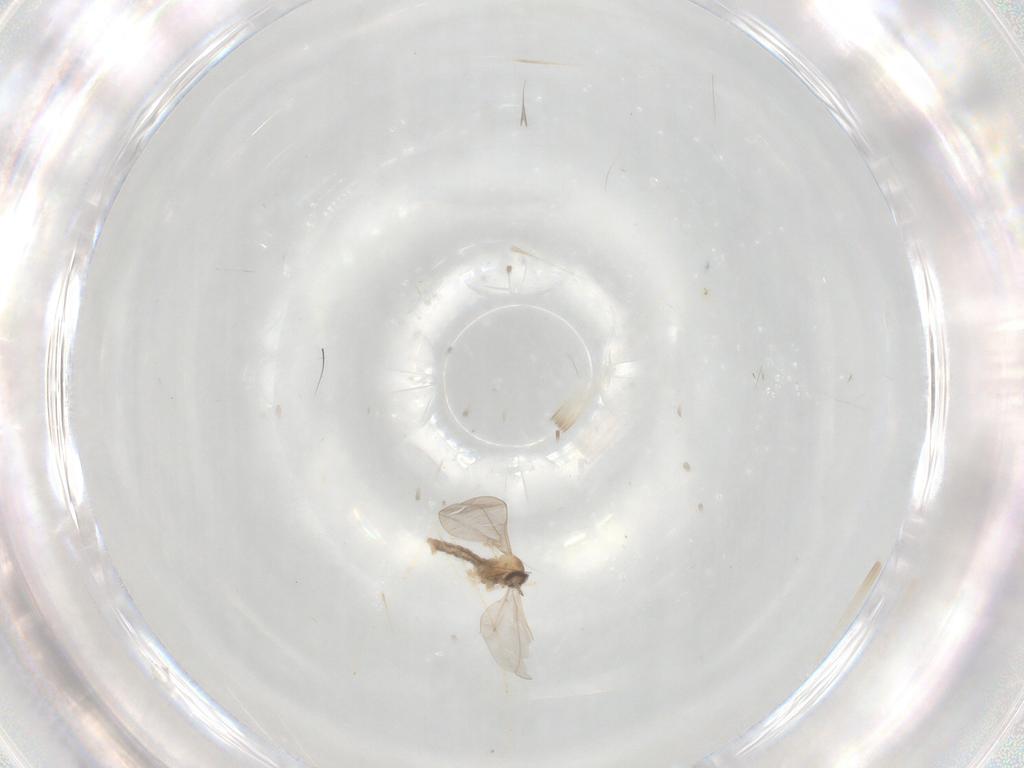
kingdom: Animalia
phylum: Arthropoda
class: Insecta
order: Diptera
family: Cecidomyiidae
